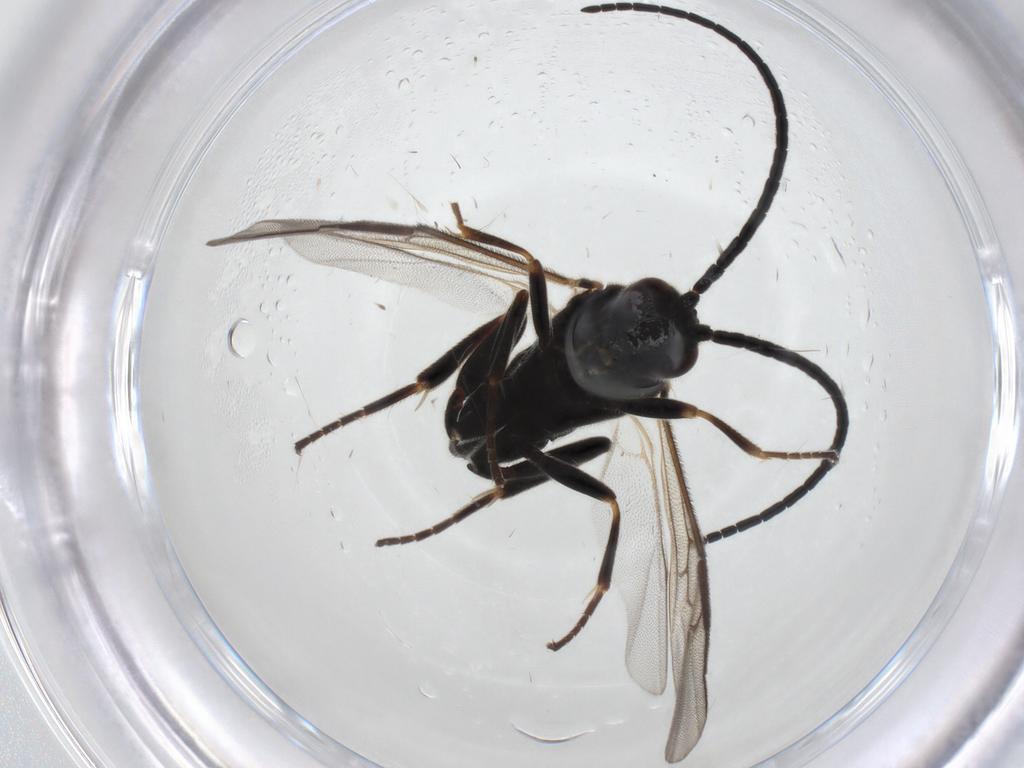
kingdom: Animalia
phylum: Arthropoda
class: Insecta
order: Hymenoptera
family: Braconidae
